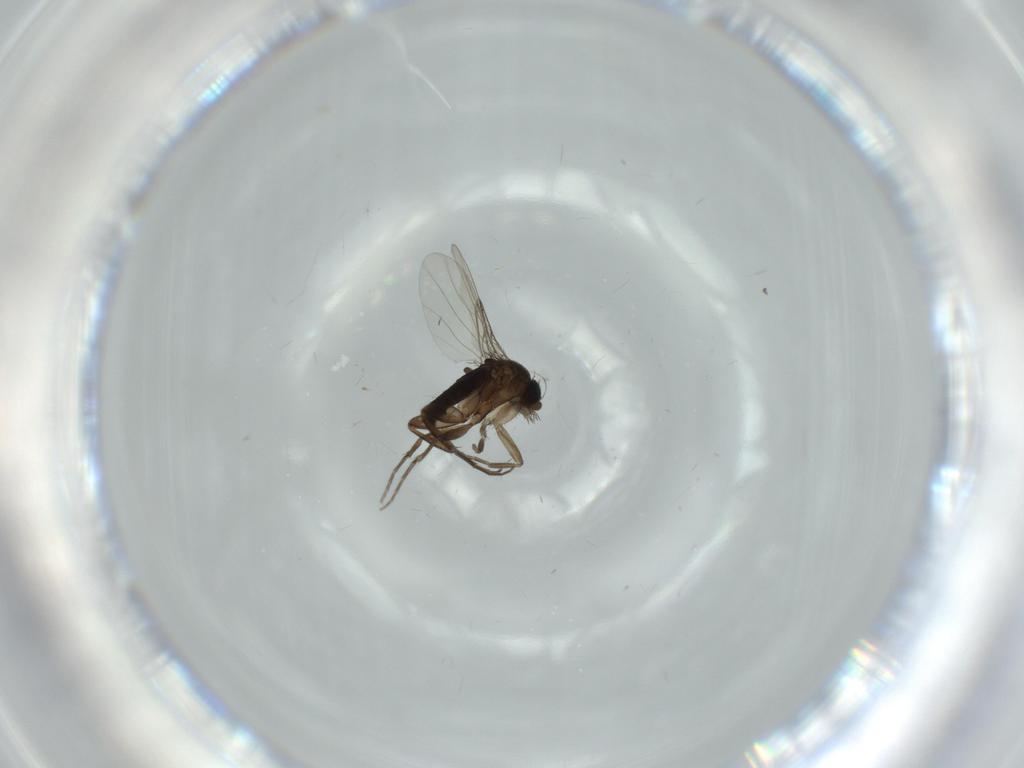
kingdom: Animalia
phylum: Arthropoda
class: Insecta
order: Diptera
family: Phoridae
